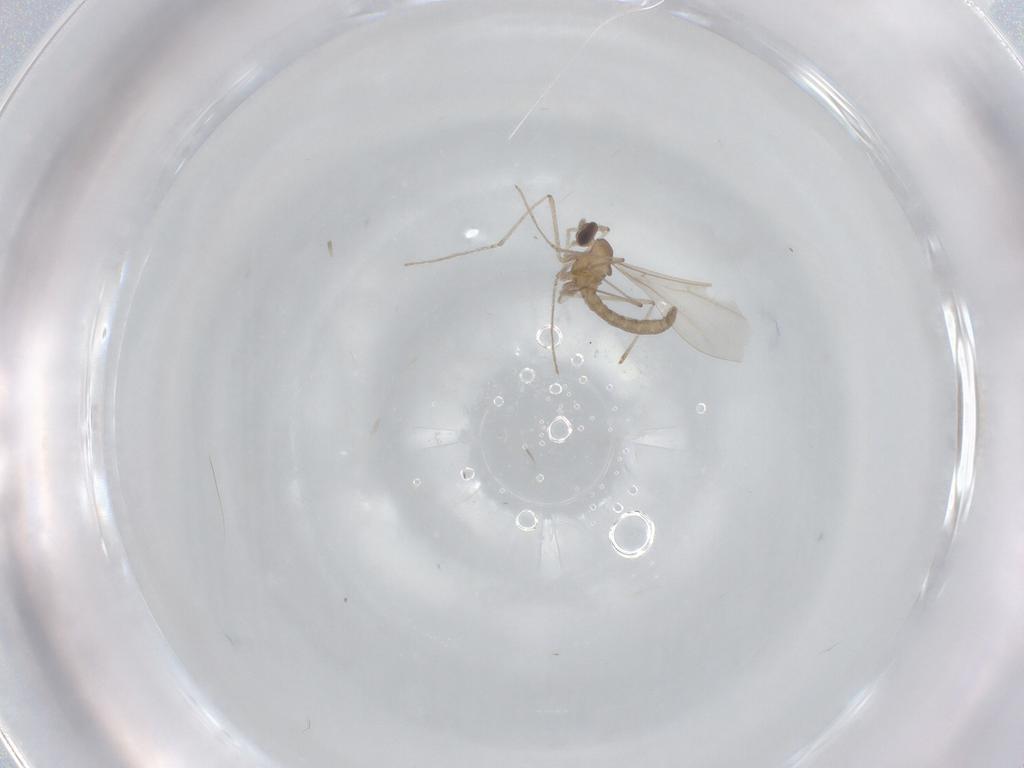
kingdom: Animalia
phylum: Arthropoda
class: Insecta
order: Diptera
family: Cecidomyiidae
